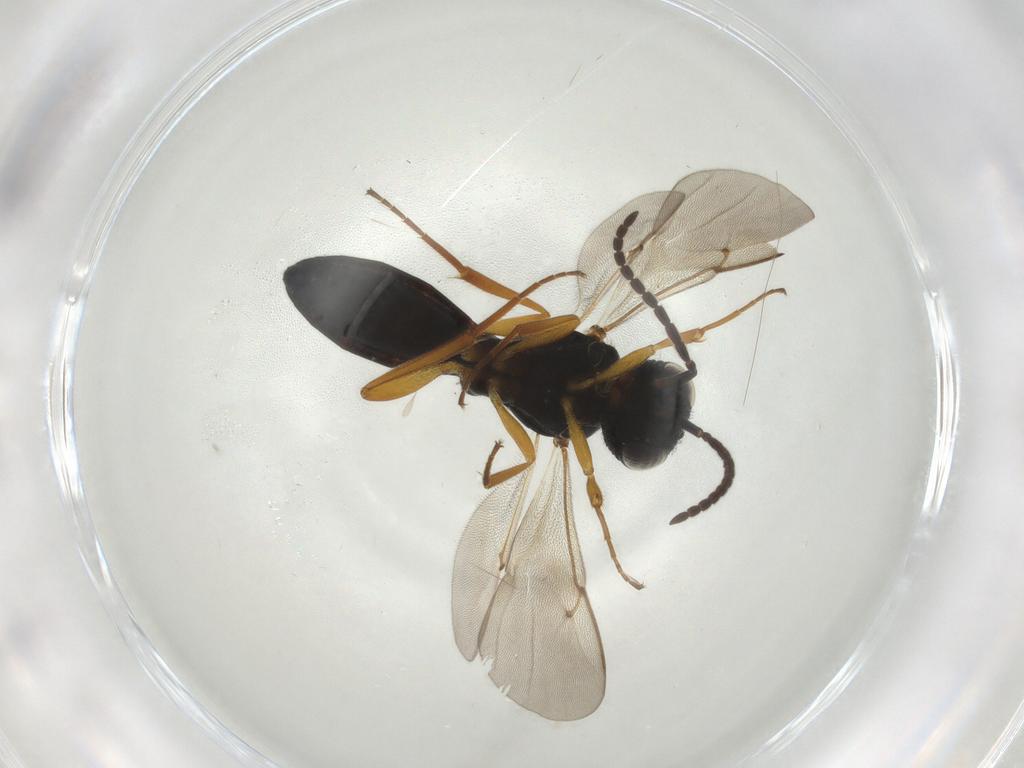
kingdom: Animalia
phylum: Arthropoda
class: Insecta
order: Hymenoptera
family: Scelionidae
